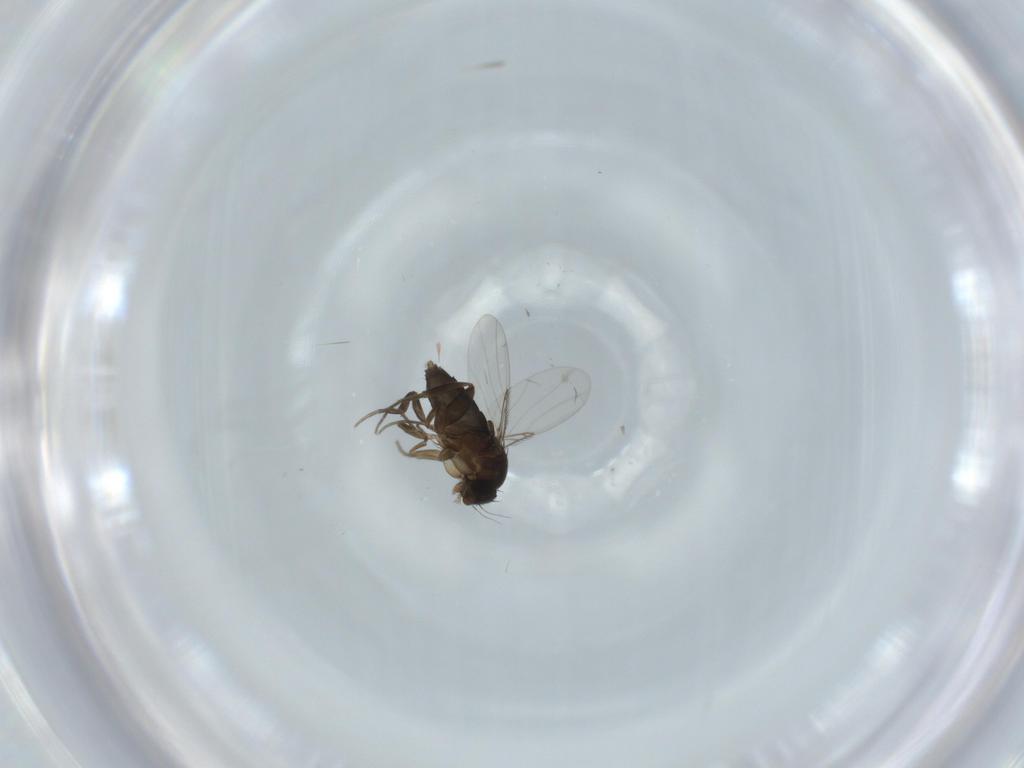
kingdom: Animalia
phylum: Arthropoda
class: Insecta
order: Diptera
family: Phoridae
